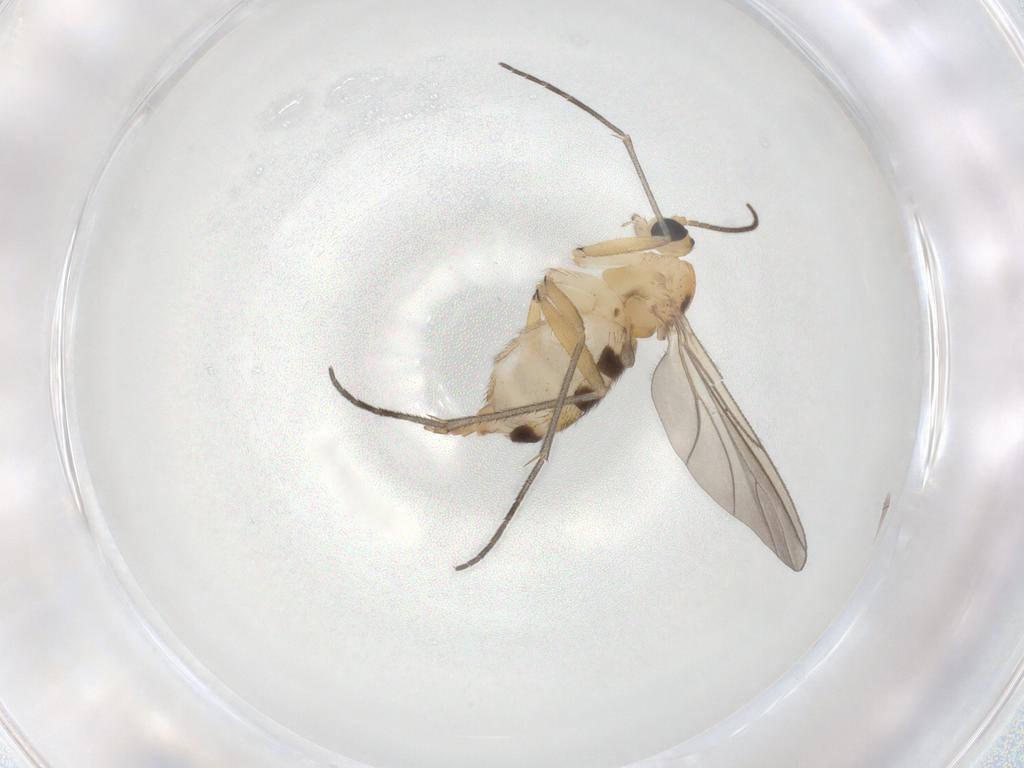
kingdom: Animalia
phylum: Arthropoda
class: Insecta
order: Diptera
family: Sciaridae
